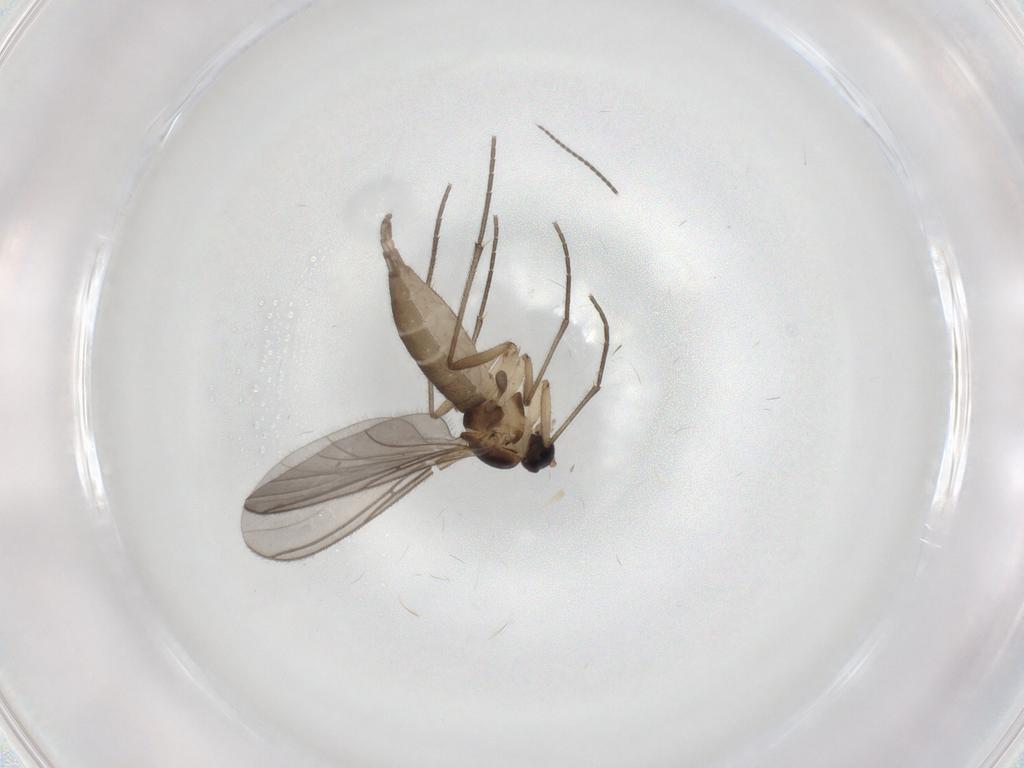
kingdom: Animalia
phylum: Arthropoda
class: Insecta
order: Diptera
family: Sciaridae
